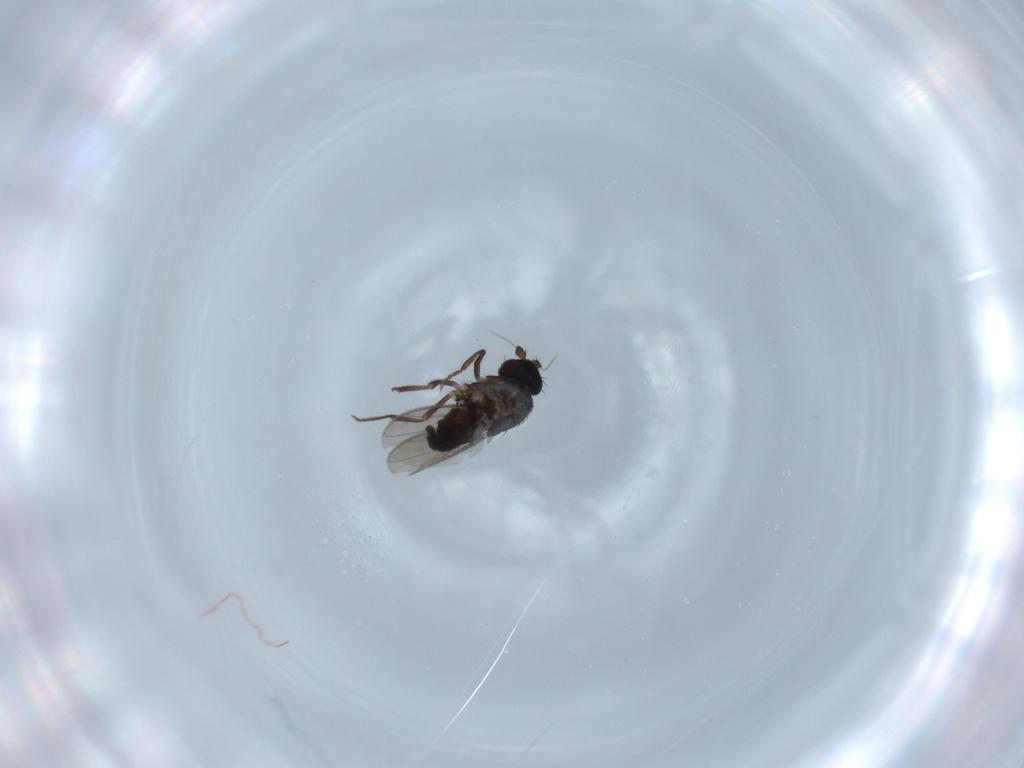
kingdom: Animalia
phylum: Arthropoda
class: Insecta
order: Diptera
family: Sphaeroceridae
